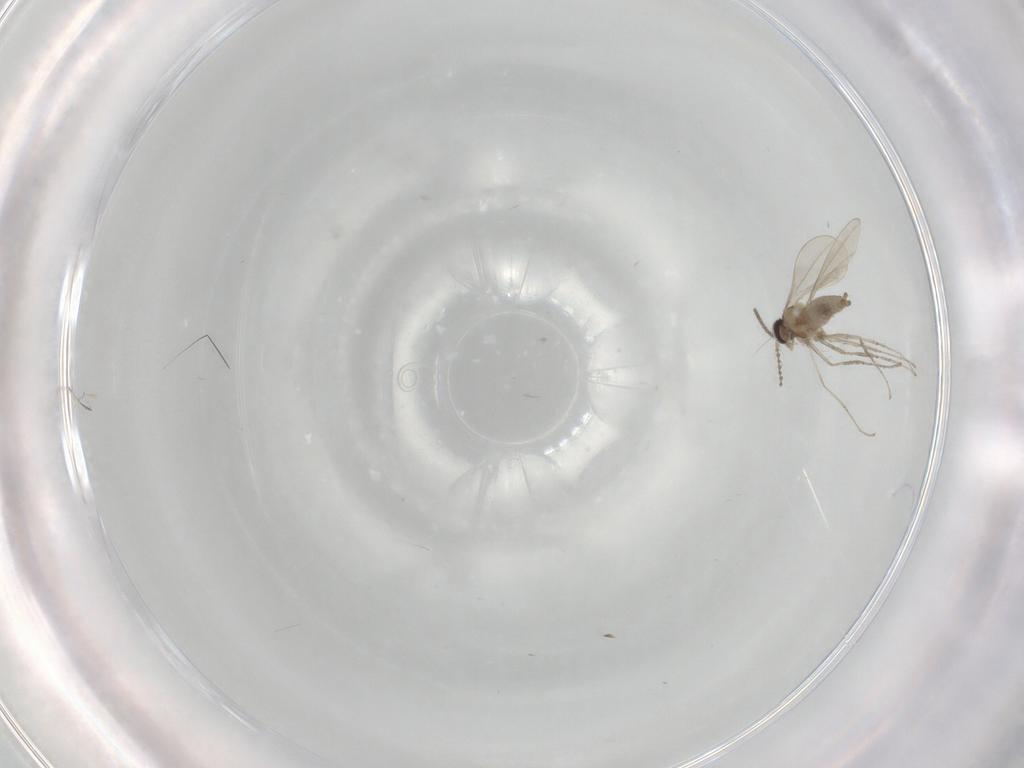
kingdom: Animalia
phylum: Arthropoda
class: Insecta
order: Diptera
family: Cecidomyiidae
